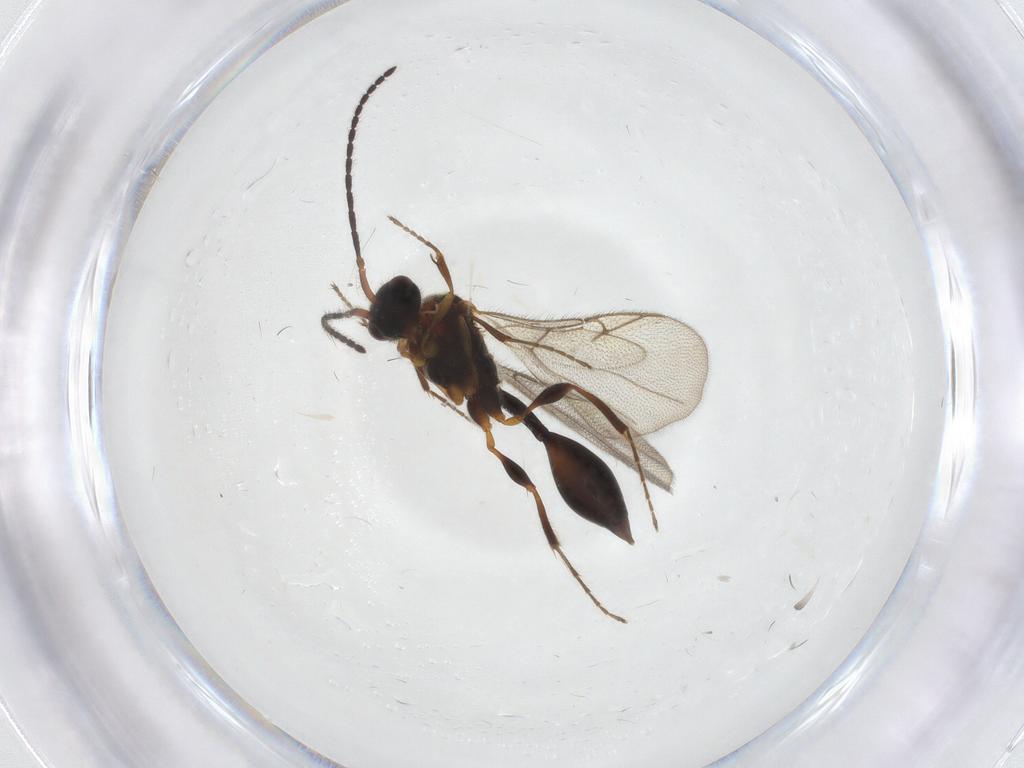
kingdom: Animalia
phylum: Arthropoda
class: Insecta
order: Hymenoptera
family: Diapriidae
